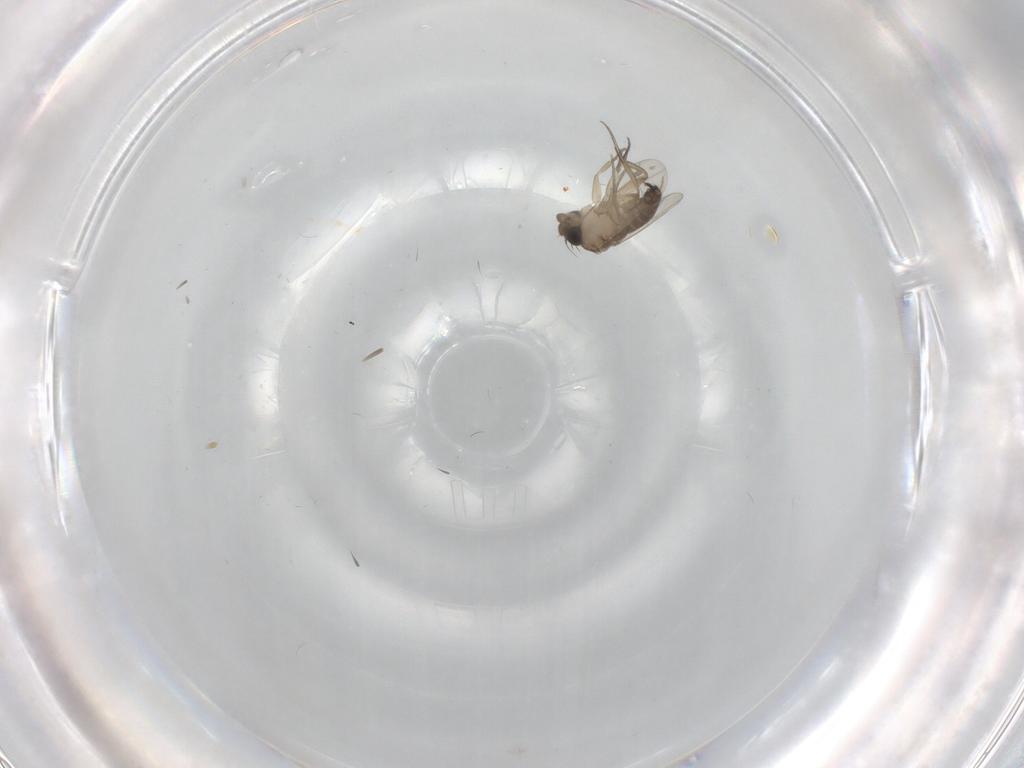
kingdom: Animalia
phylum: Arthropoda
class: Insecta
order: Diptera
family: Phoridae
